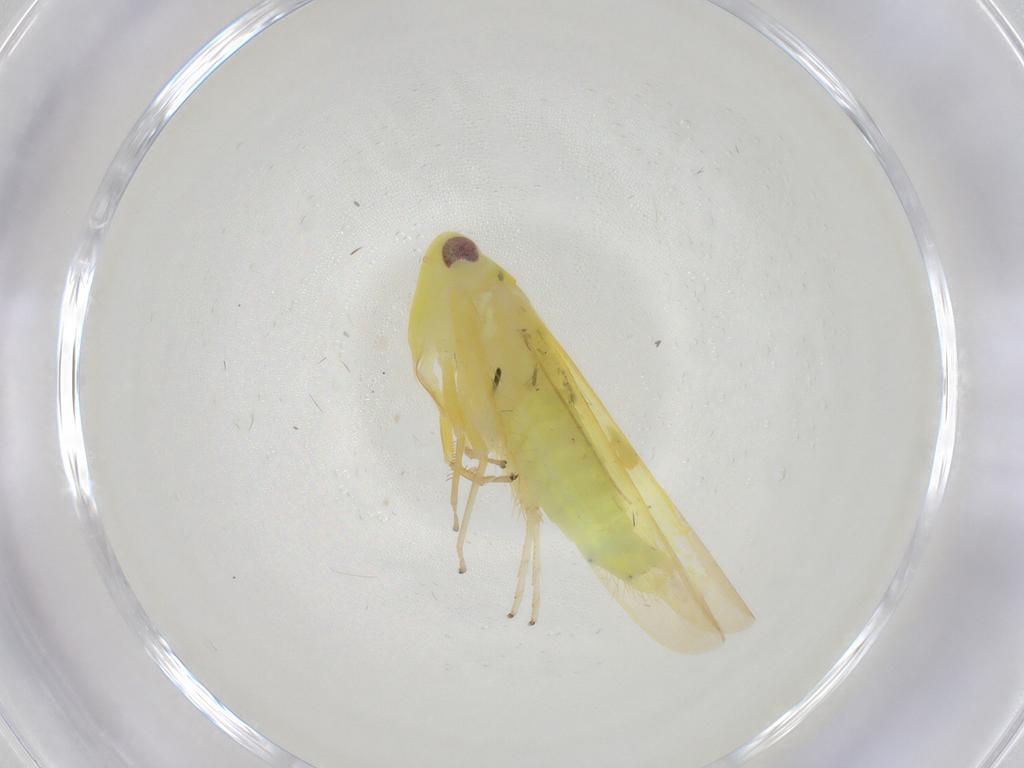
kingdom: Animalia
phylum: Arthropoda
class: Insecta
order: Hemiptera
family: Cicadellidae
